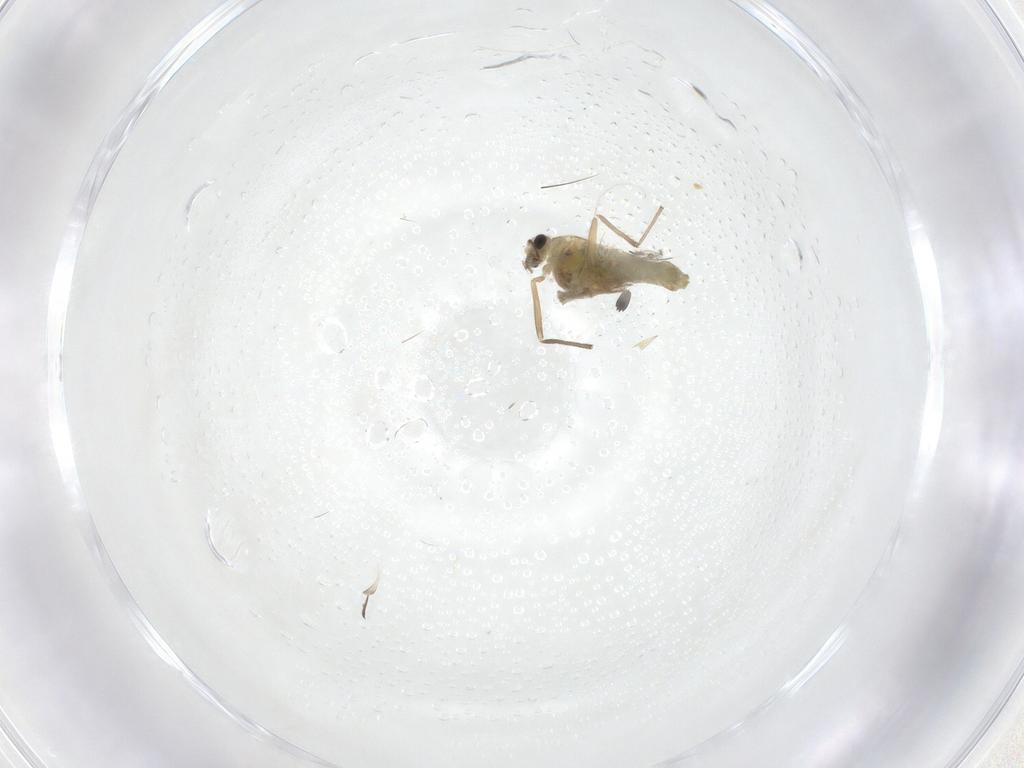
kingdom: Animalia
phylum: Arthropoda
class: Insecta
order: Diptera
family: Chironomidae
